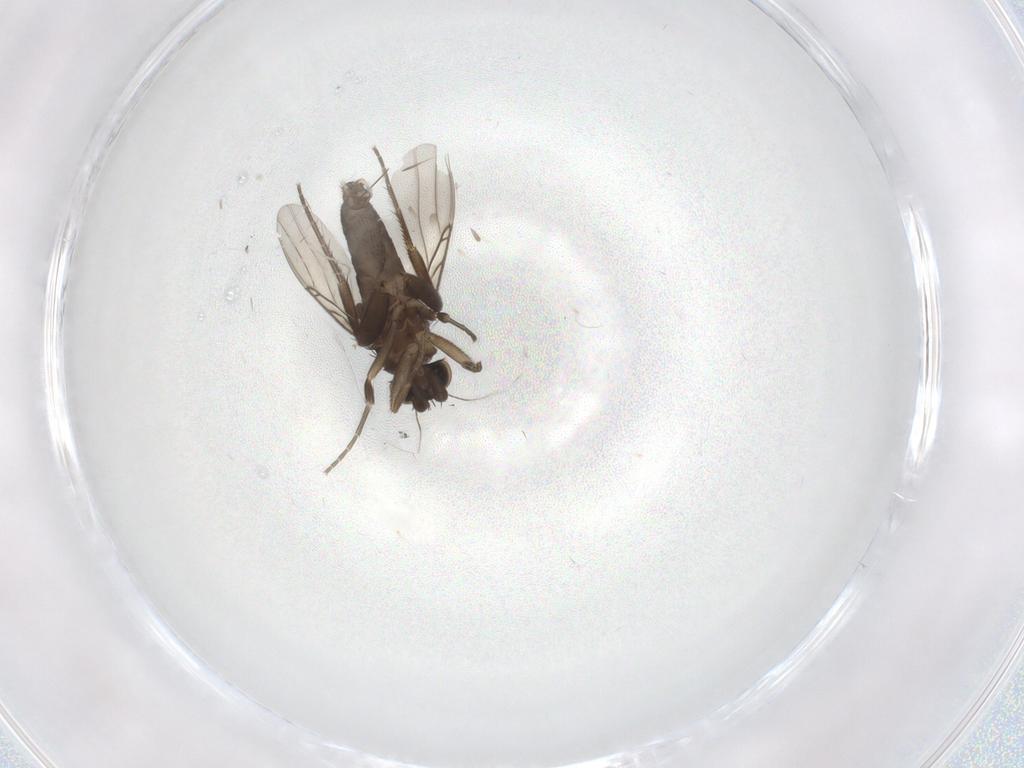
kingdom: Animalia
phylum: Arthropoda
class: Insecta
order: Diptera
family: Phoridae
